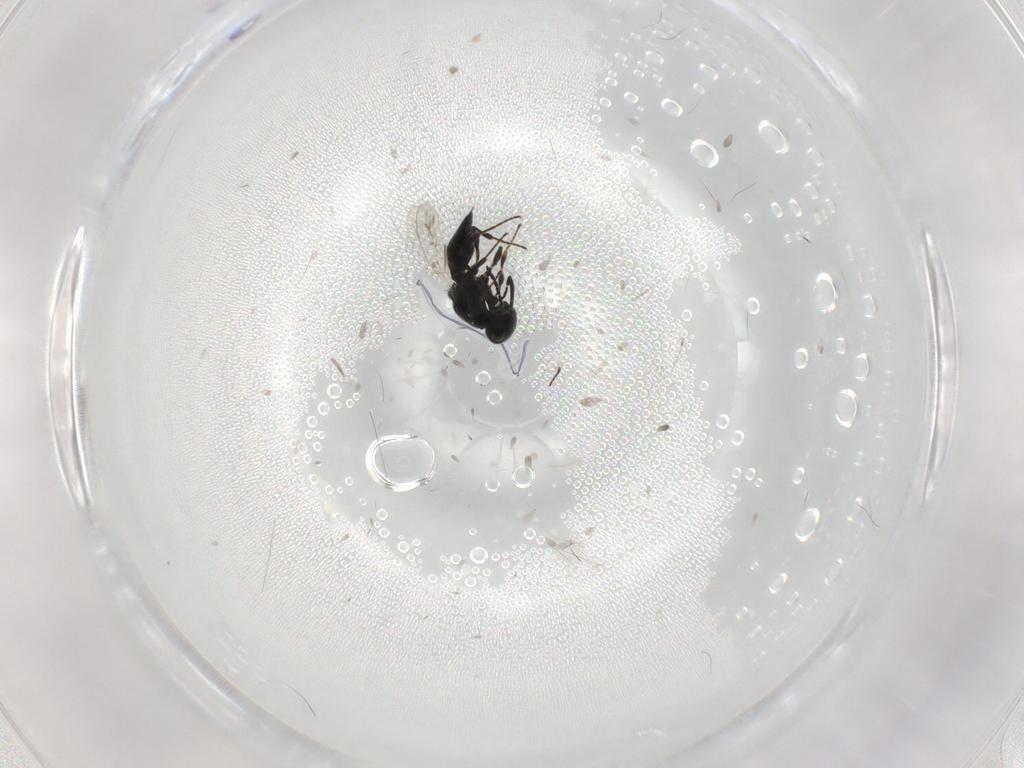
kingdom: Animalia
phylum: Arthropoda
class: Insecta
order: Hymenoptera
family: Platygastridae
